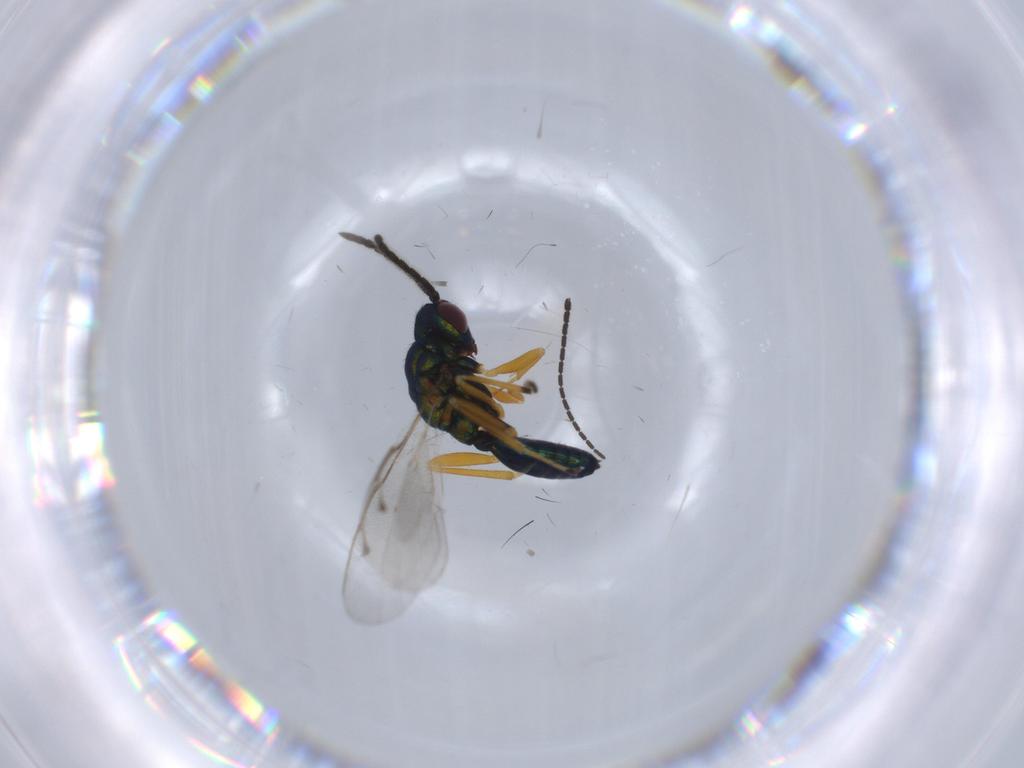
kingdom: Animalia
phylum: Arthropoda
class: Insecta
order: Hymenoptera
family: Pteromalidae
